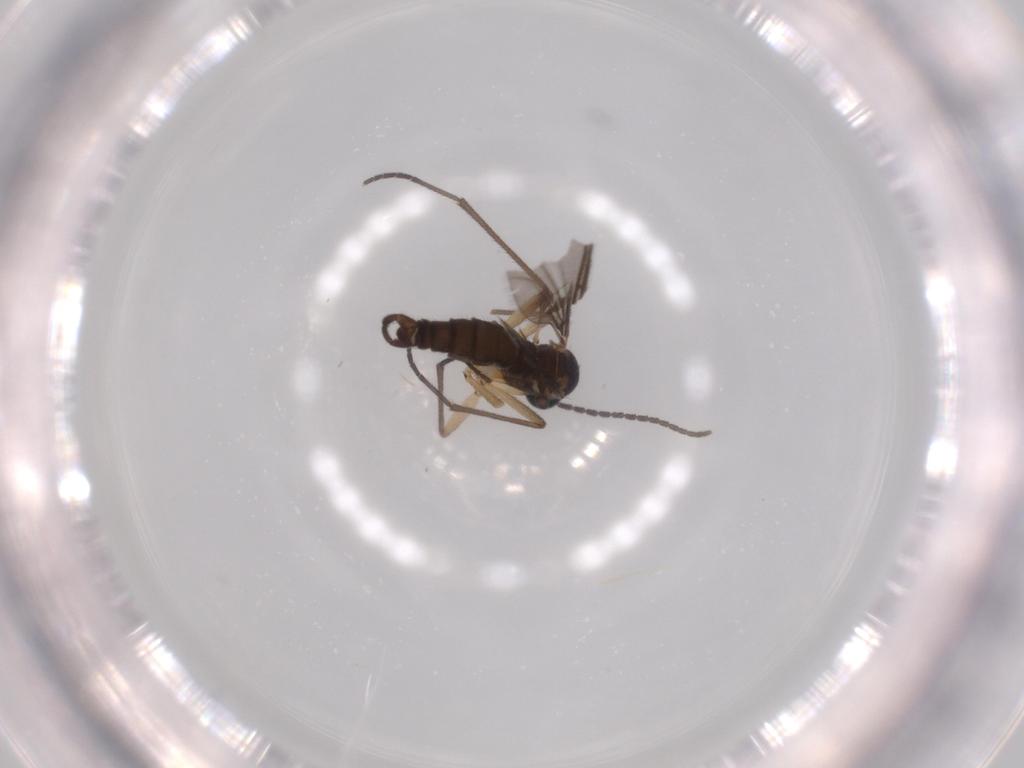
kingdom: Animalia
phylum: Arthropoda
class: Insecta
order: Diptera
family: Sciaridae
